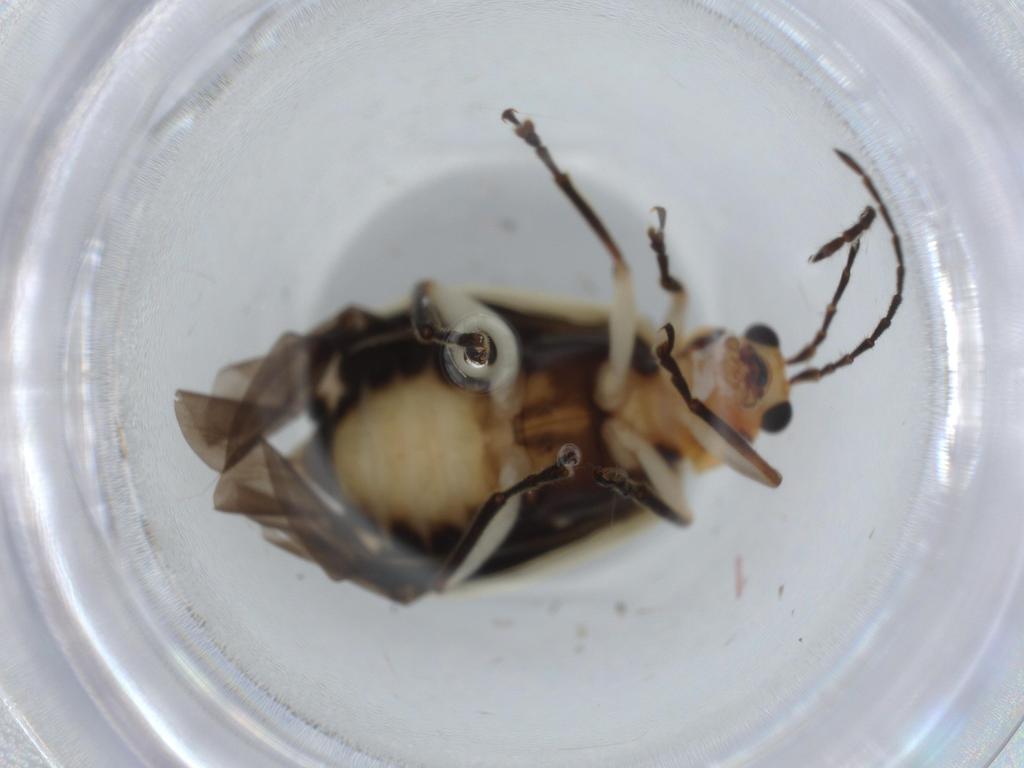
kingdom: Animalia
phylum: Arthropoda
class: Insecta
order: Coleoptera
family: Chrysomelidae
